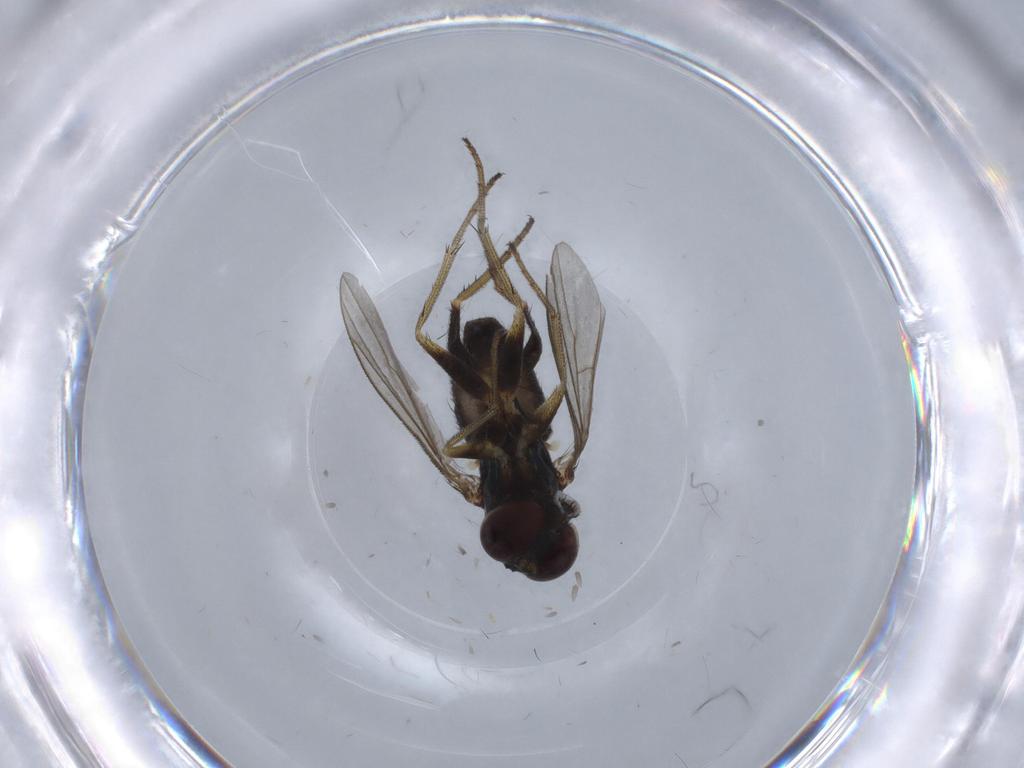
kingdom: Animalia
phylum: Arthropoda
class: Insecta
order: Diptera
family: Dolichopodidae
